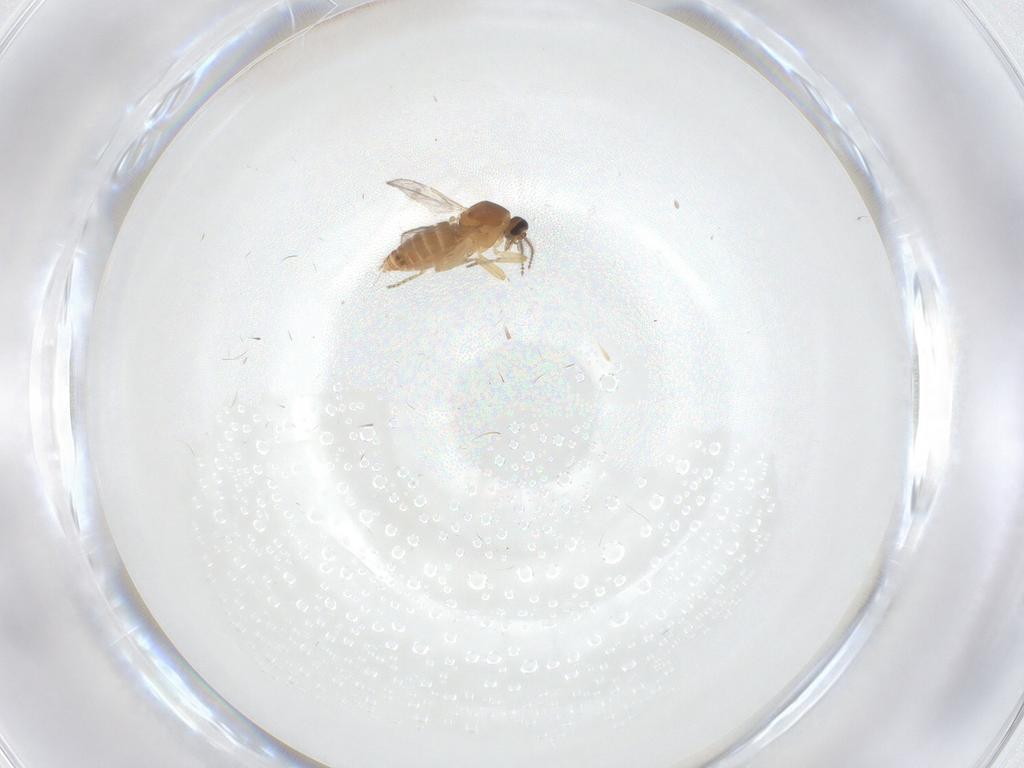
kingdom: Animalia
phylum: Arthropoda
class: Insecta
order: Diptera
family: Ceratopogonidae
